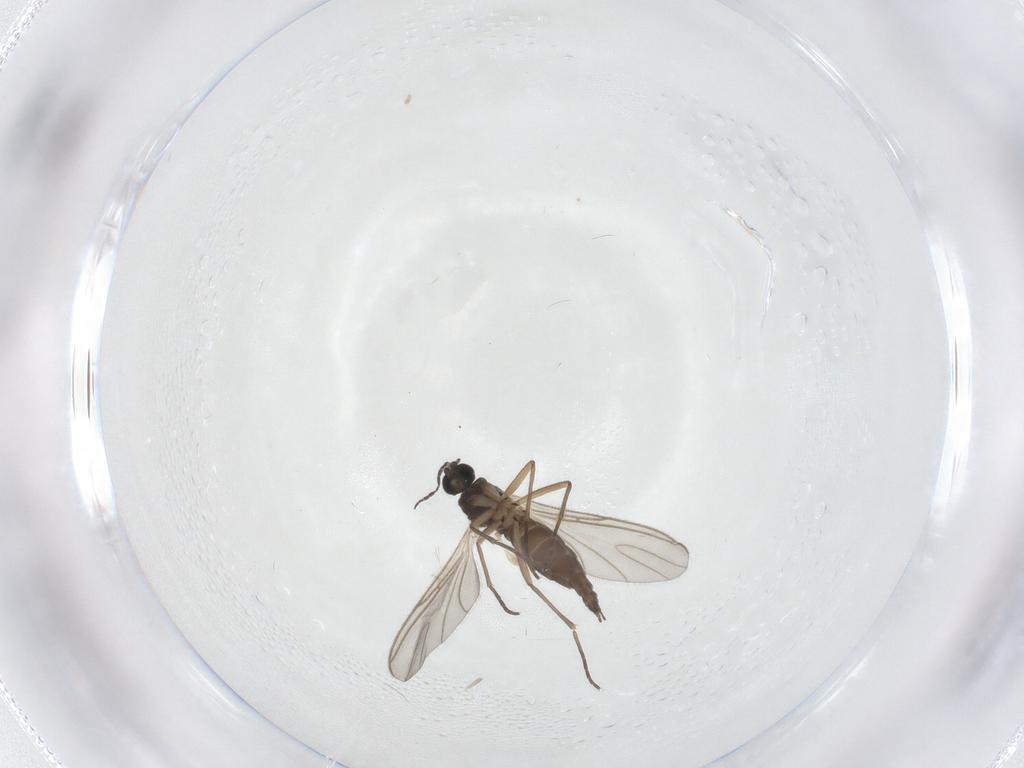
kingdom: Animalia
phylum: Arthropoda
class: Insecta
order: Diptera
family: Sciaridae
